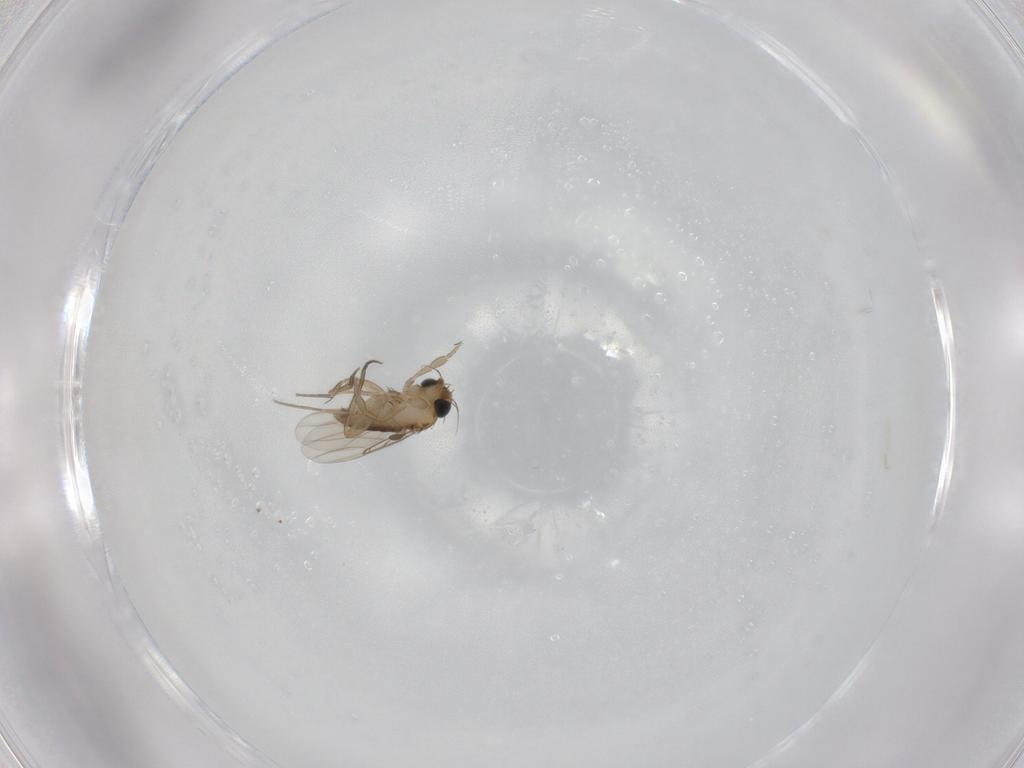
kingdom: Animalia
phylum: Arthropoda
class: Insecta
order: Diptera
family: Phoridae
